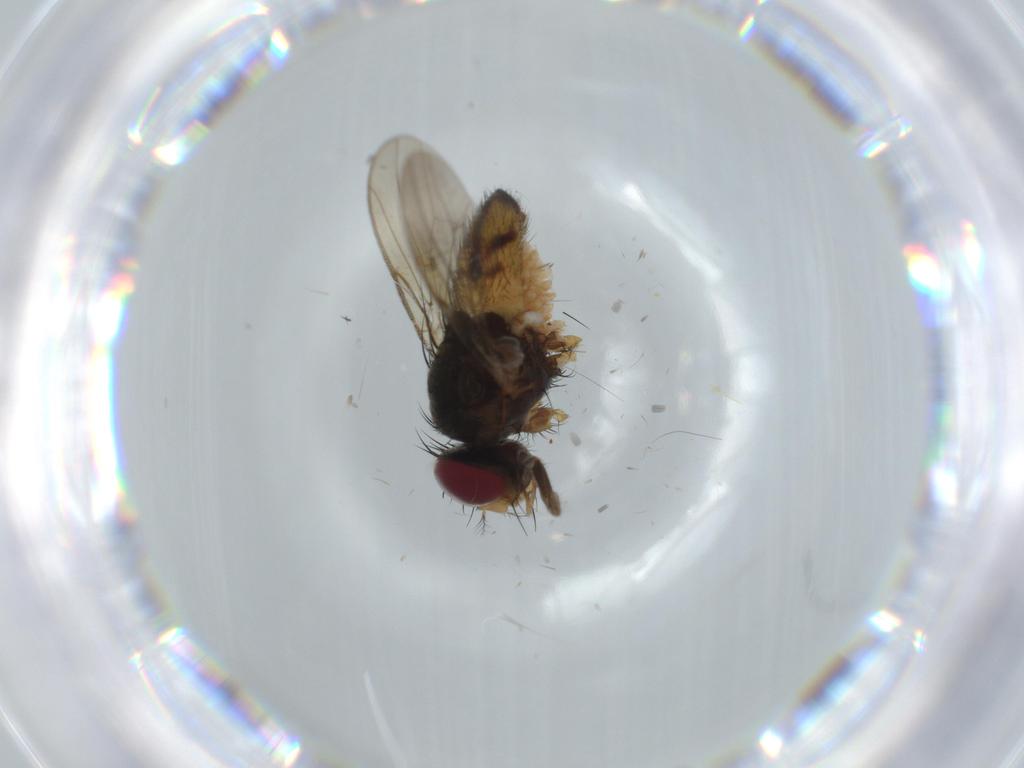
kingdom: Animalia
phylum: Arthropoda
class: Insecta
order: Diptera
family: Anthomyiidae
